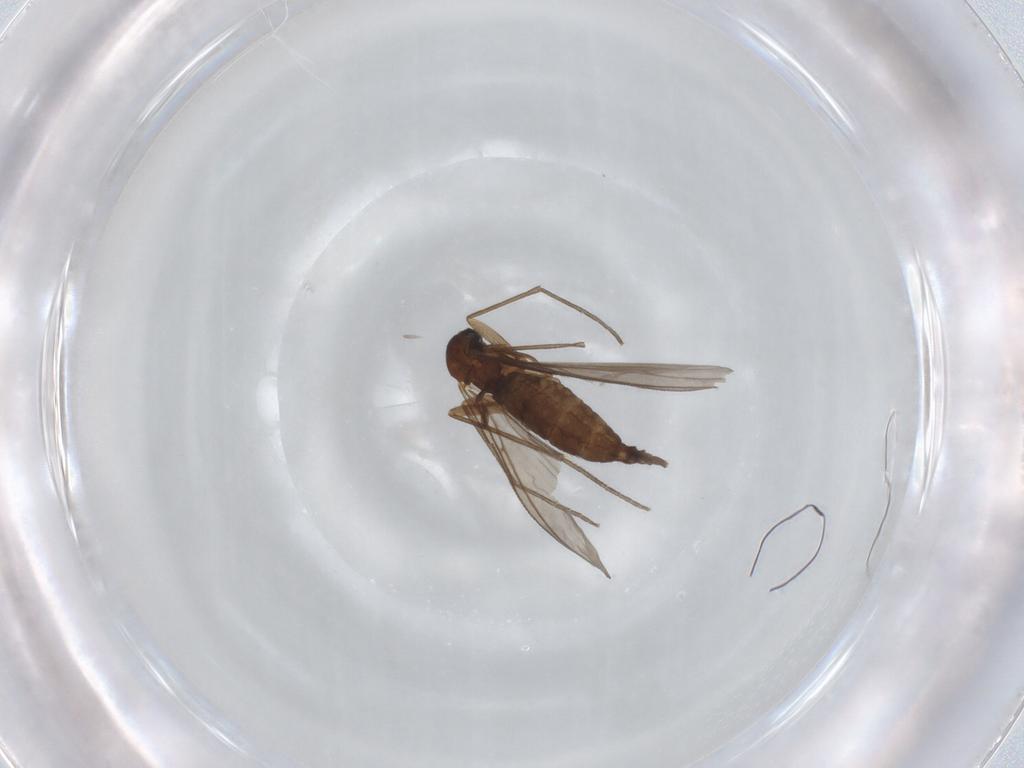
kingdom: Animalia
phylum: Arthropoda
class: Insecta
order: Diptera
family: Sciaridae
